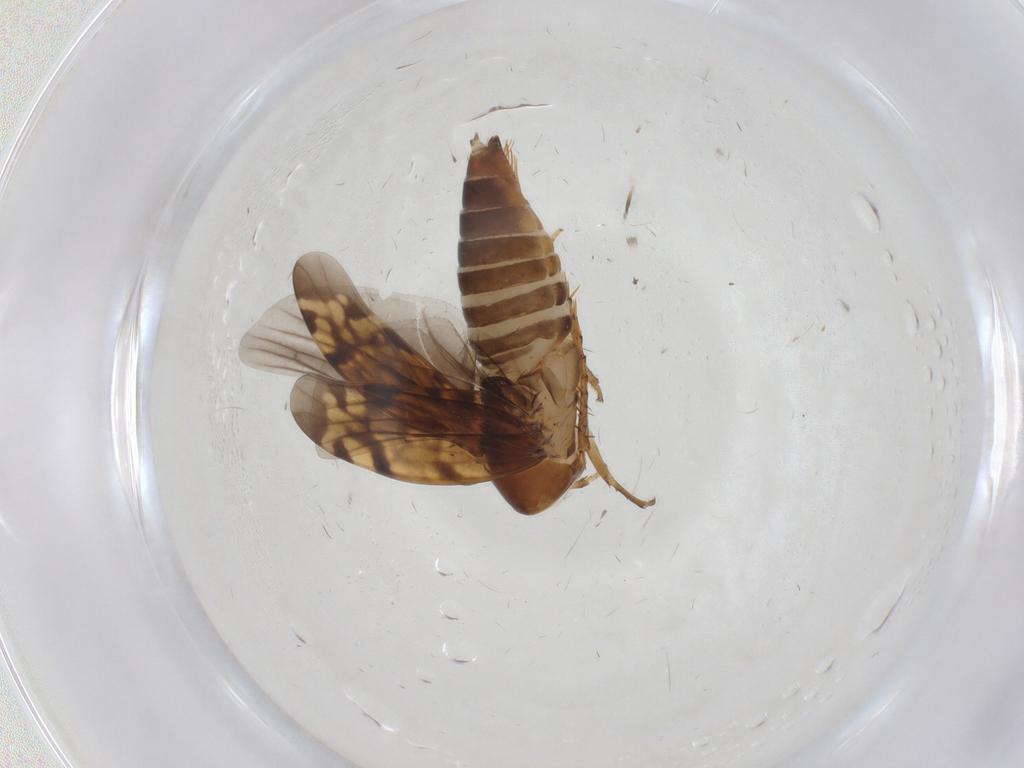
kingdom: Animalia
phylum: Arthropoda
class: Insecta
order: Hemiptera
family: Cicadellidae
